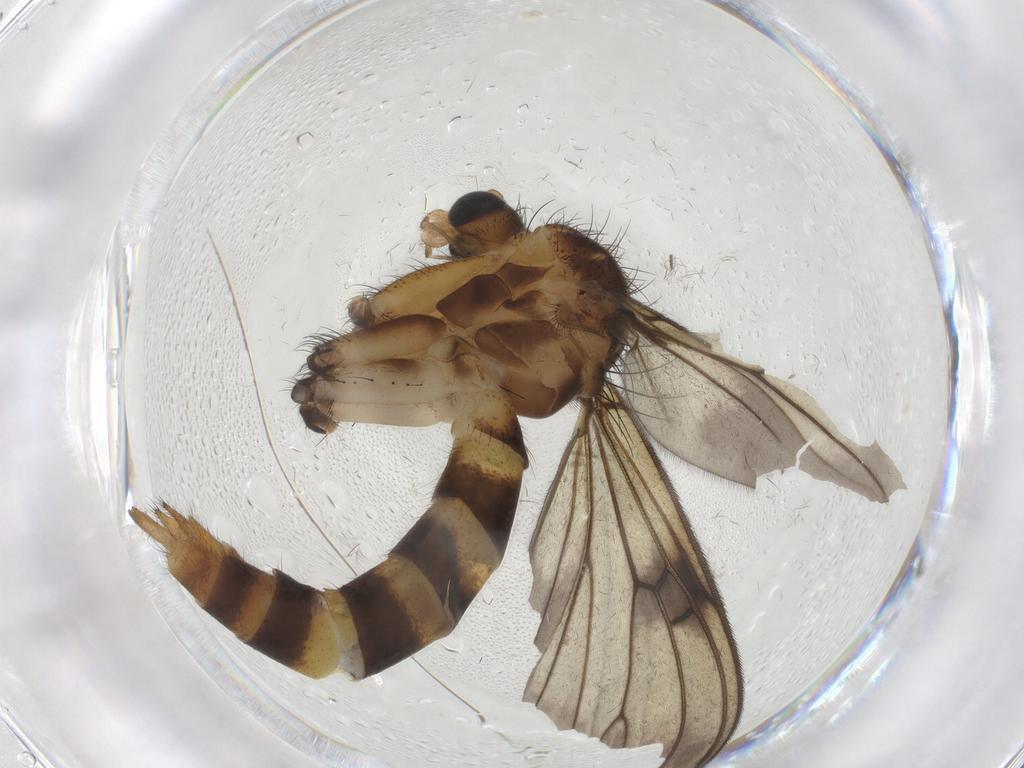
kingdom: Animalia
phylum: Arthropoda
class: Insecta
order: Diptera
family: Mycetophilidae
